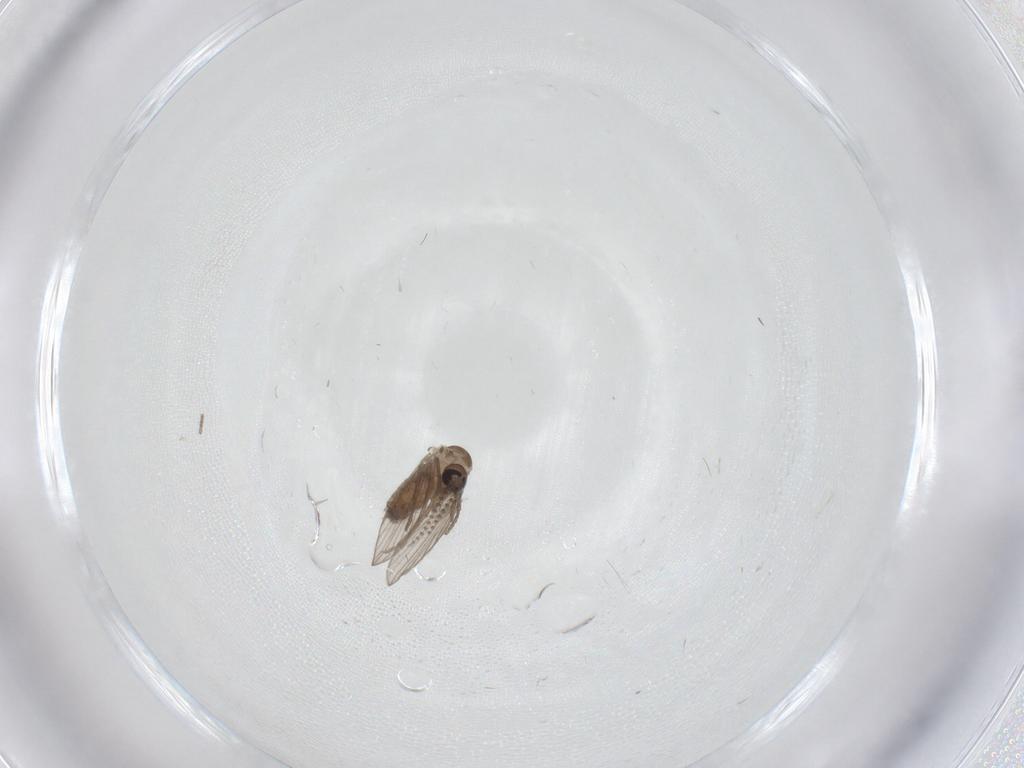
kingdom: Animalia
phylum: Arthropoda
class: Insecta
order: Diptera
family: Psychodidae
